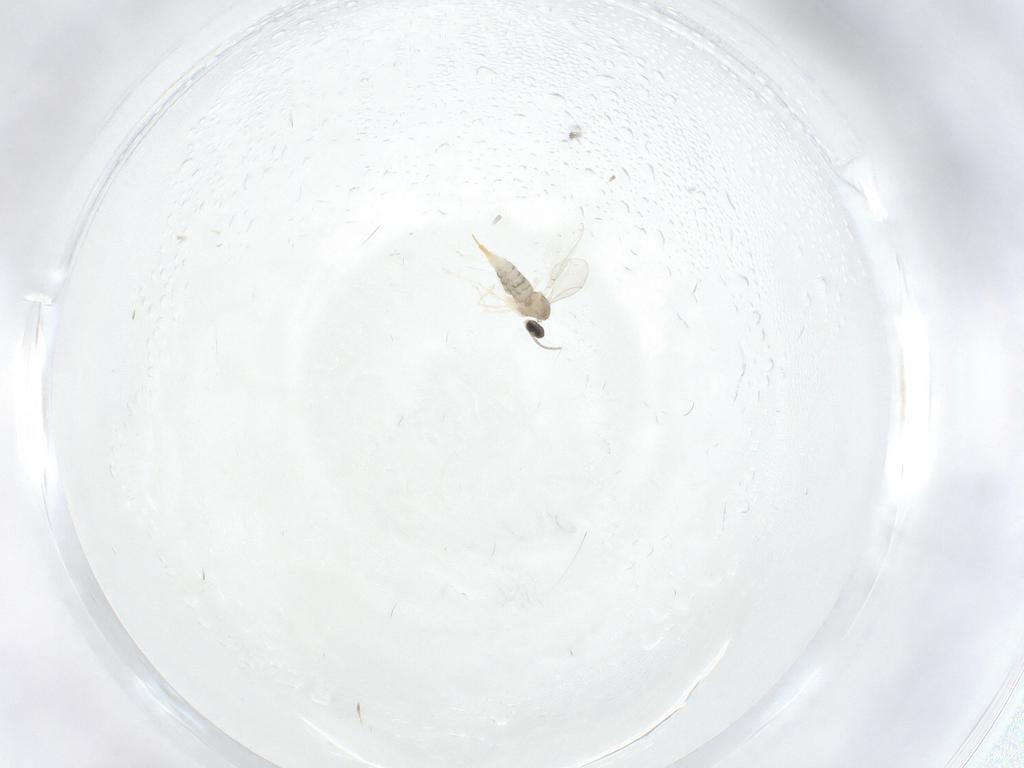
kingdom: Animalia
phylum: Arthropoda
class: Insecta
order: Diptera
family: Cecidomyiidae
